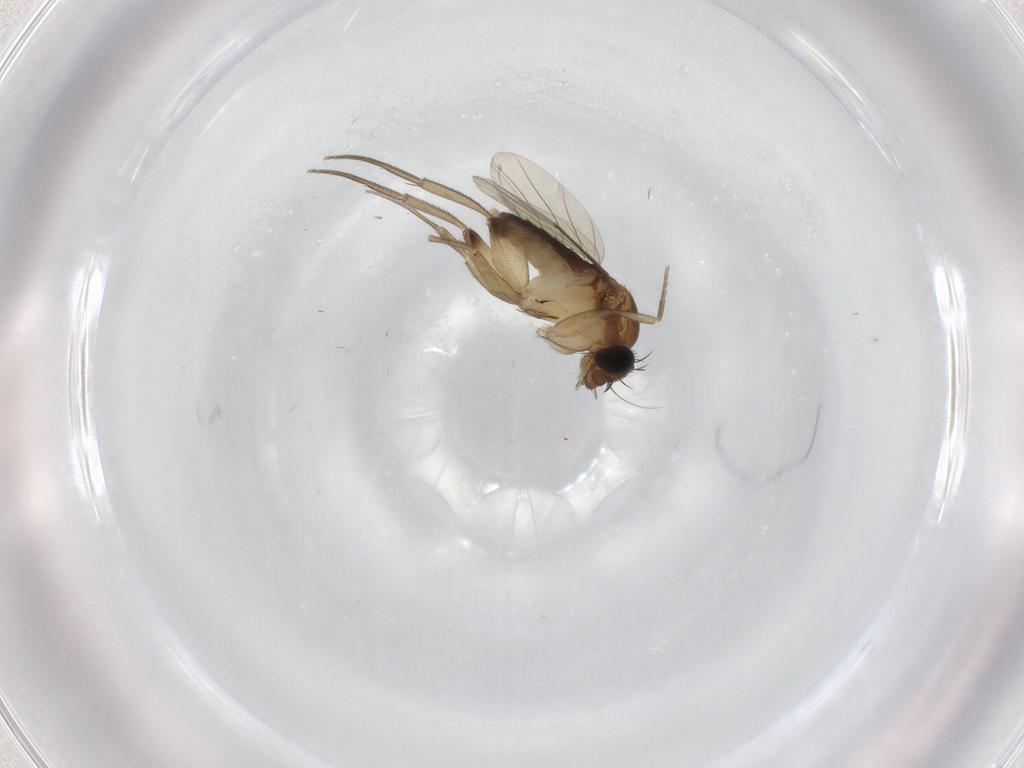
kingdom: Animalia
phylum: Arthropoda
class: Insecta
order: Diptera
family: Phoridae
